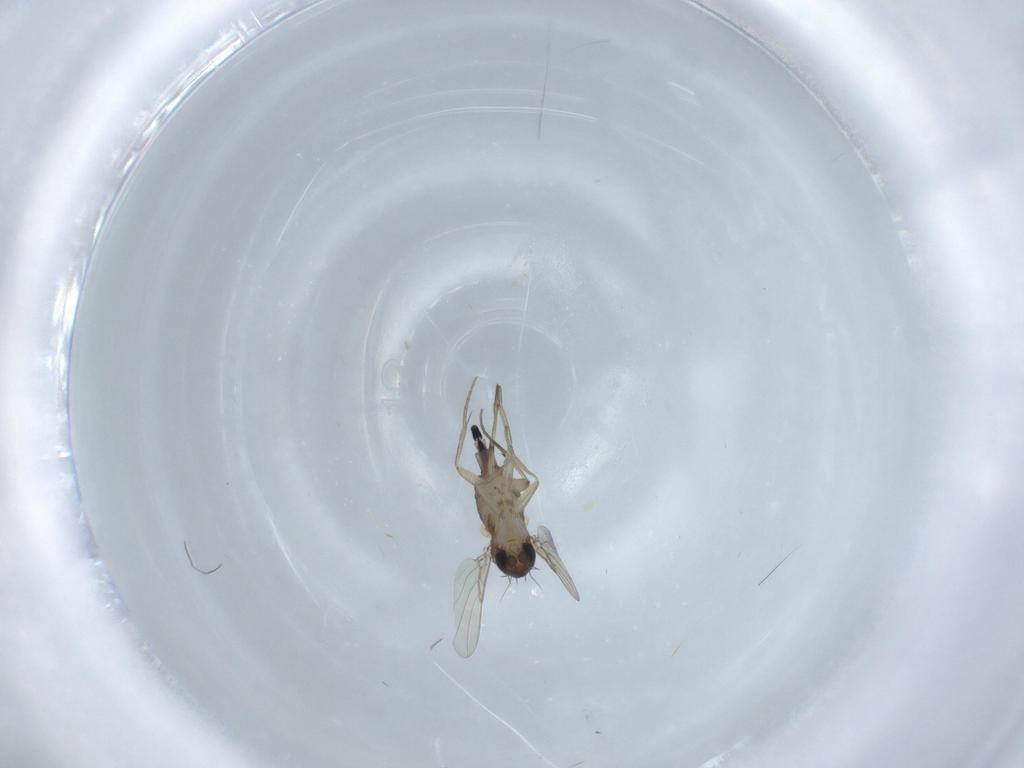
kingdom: Animalia
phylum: Arthropoda
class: Insecta
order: Diptera
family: Phoridae
